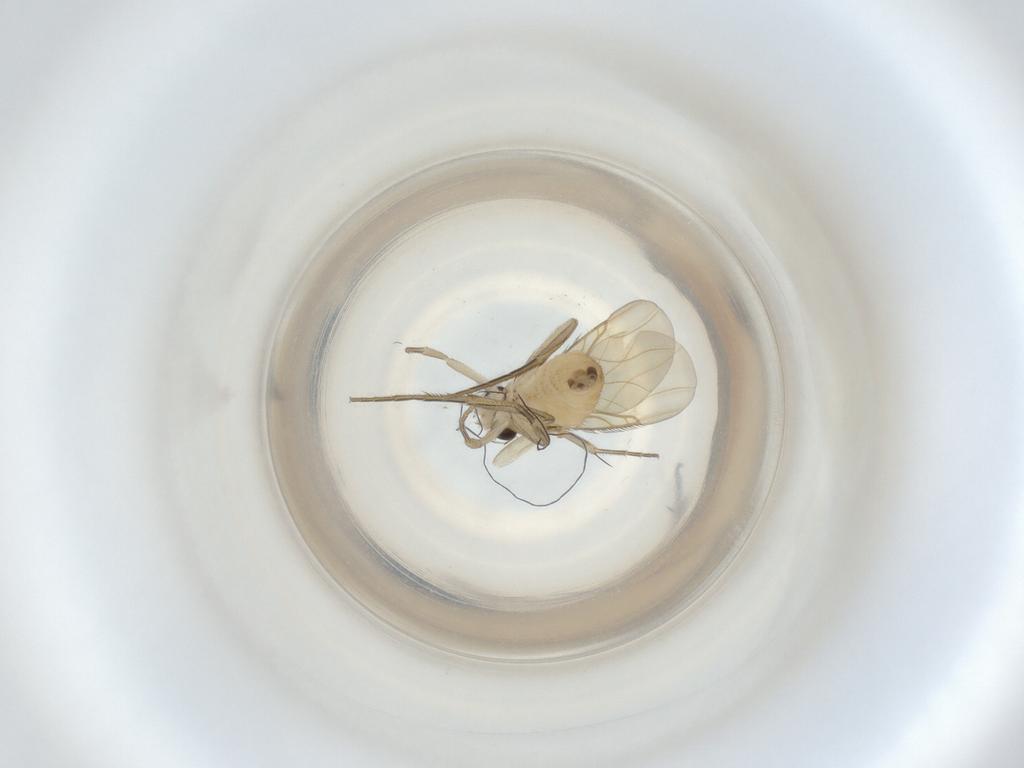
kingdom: Animalia
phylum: Arthropoda
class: Insecta
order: Diptera
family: Phoridae
